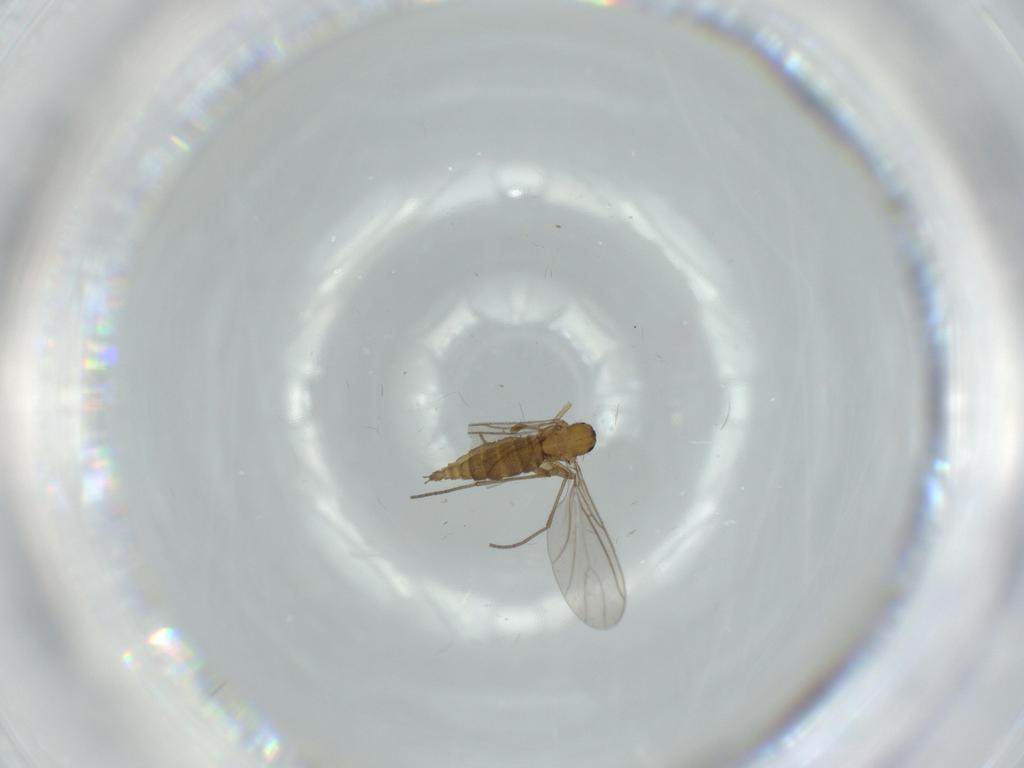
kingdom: Animalia
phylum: Arthropoda
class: Insecta
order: Diptera
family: Sciaridae
